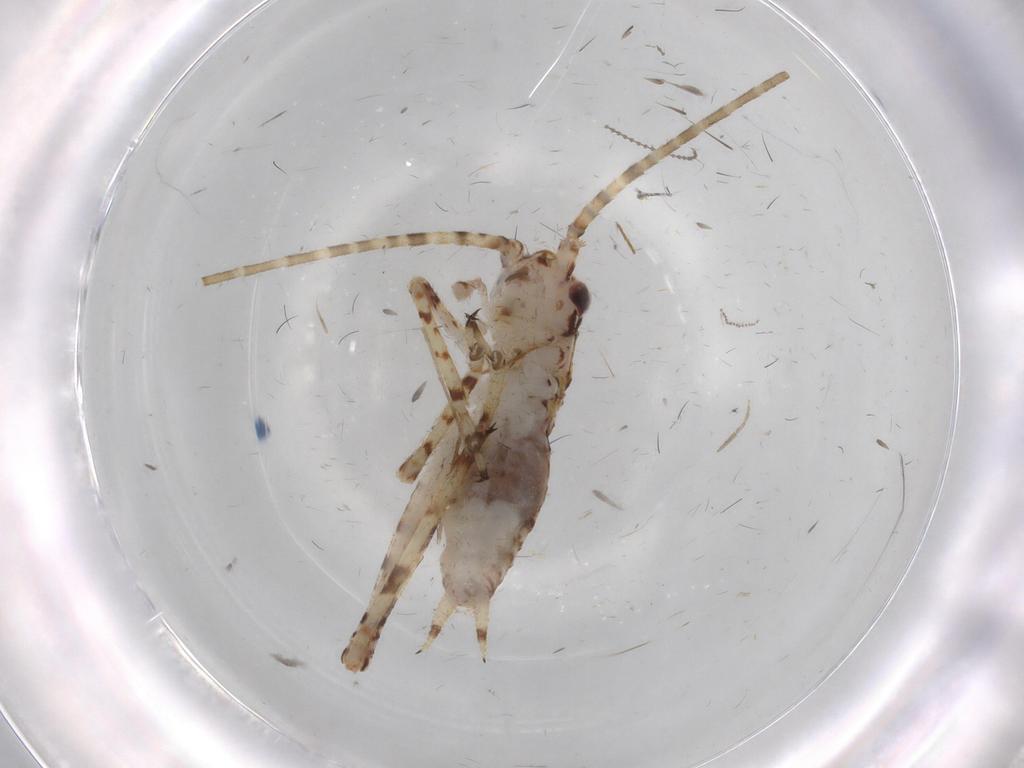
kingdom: Animalia
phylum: Arthropoda
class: Insecta
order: Orthoptera
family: Gryllidae
